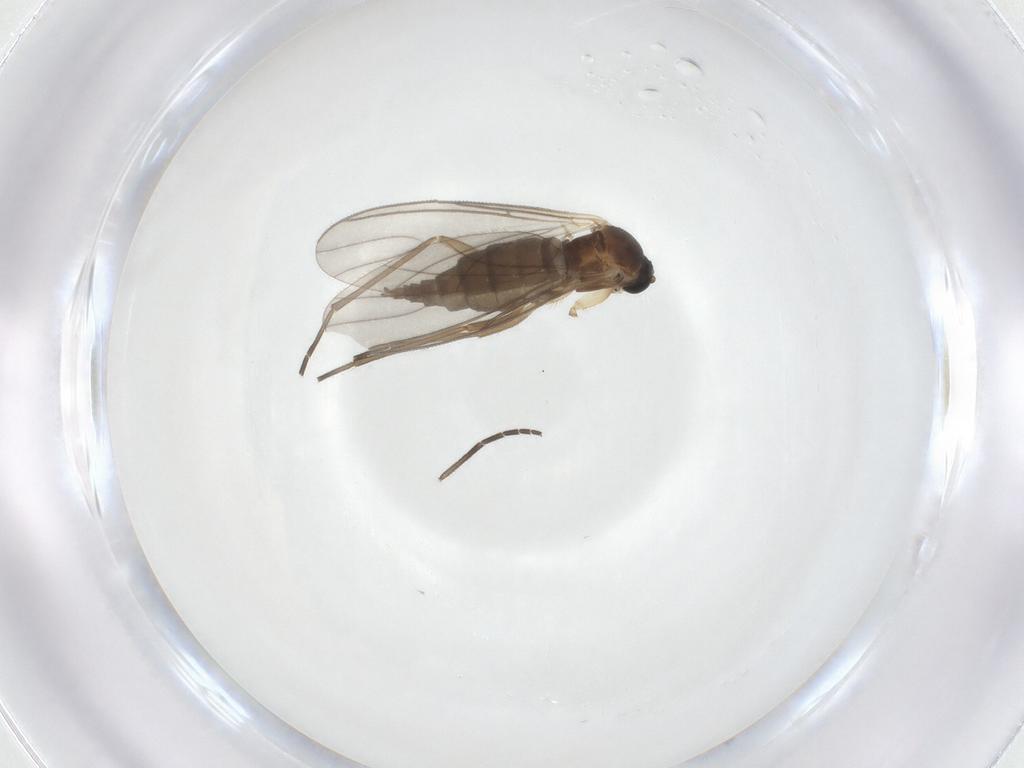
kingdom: Animalia
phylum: Arthropoda
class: Insecta
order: Diptera
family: Sciaridae
